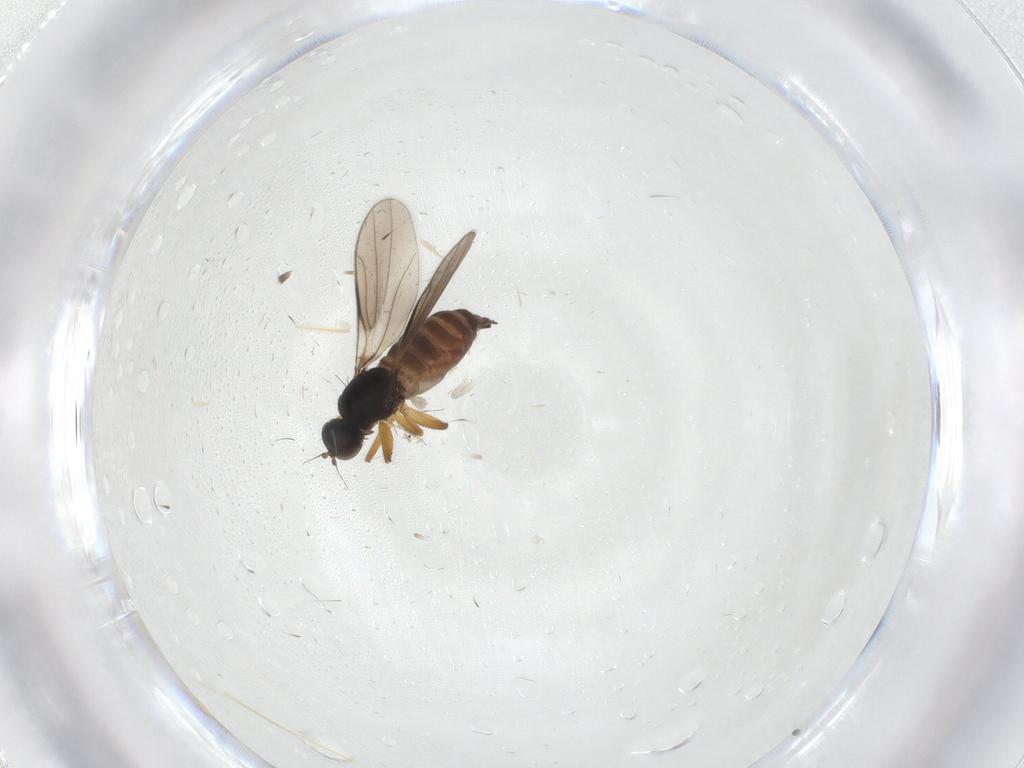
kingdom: Animalia
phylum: Arthropoda
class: Insecta
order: Diptera
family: Hybotidae
